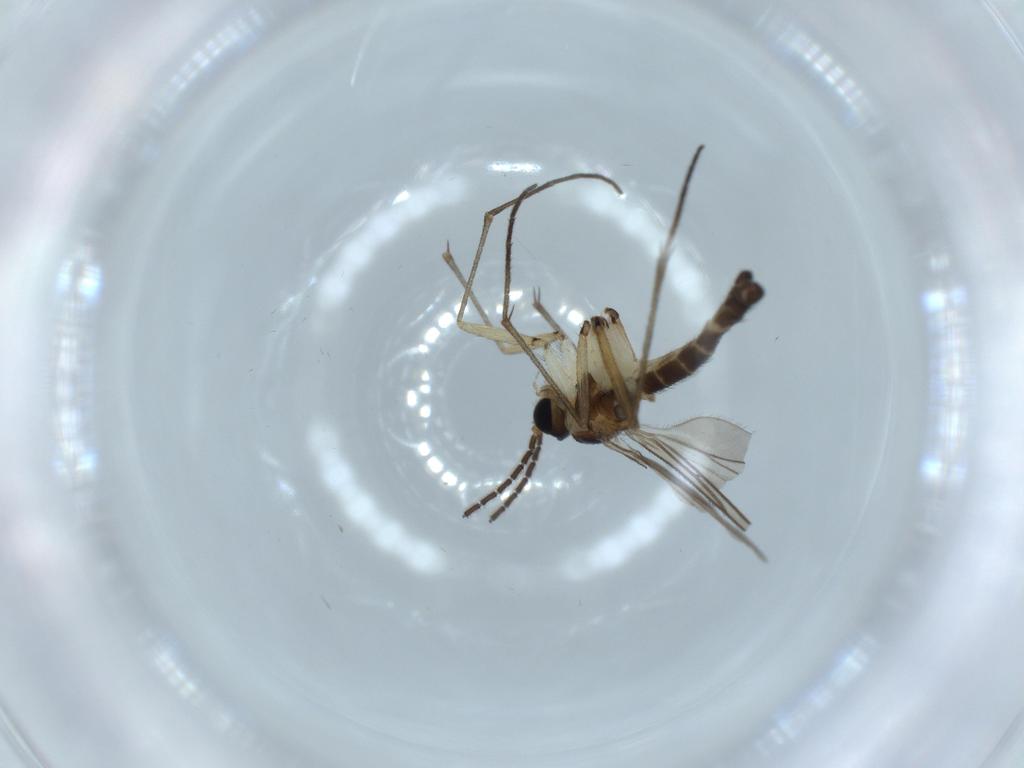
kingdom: Animalia
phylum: Arthropoda
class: Insecta
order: Diptera
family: Sciaridae
